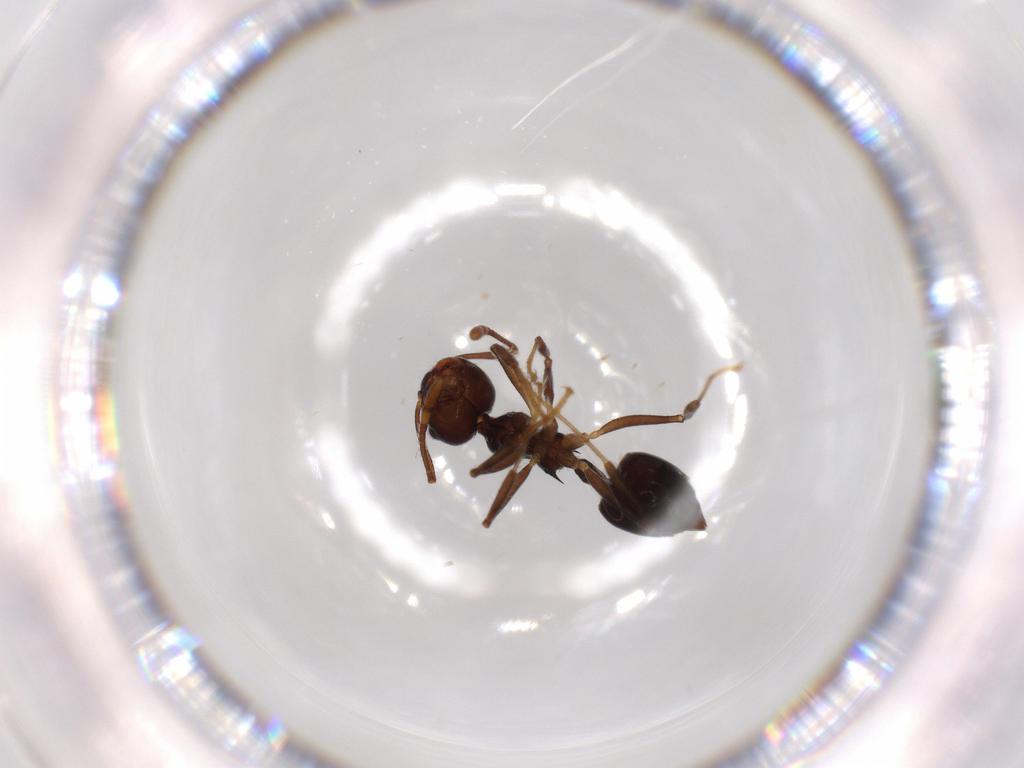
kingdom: Animalia
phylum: Arthropoda
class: Insecta
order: Hymenoptera
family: Formicidae
